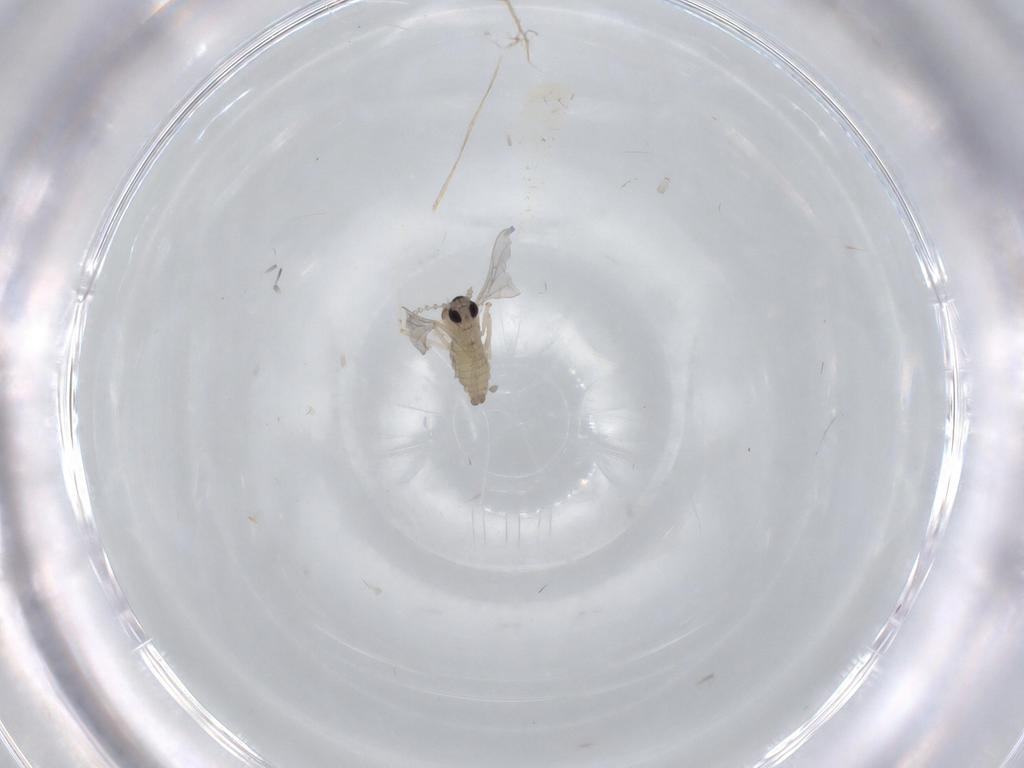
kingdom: Animalia
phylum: Arthropoda
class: Insecta
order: Diptera
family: Cecidomyiidae
